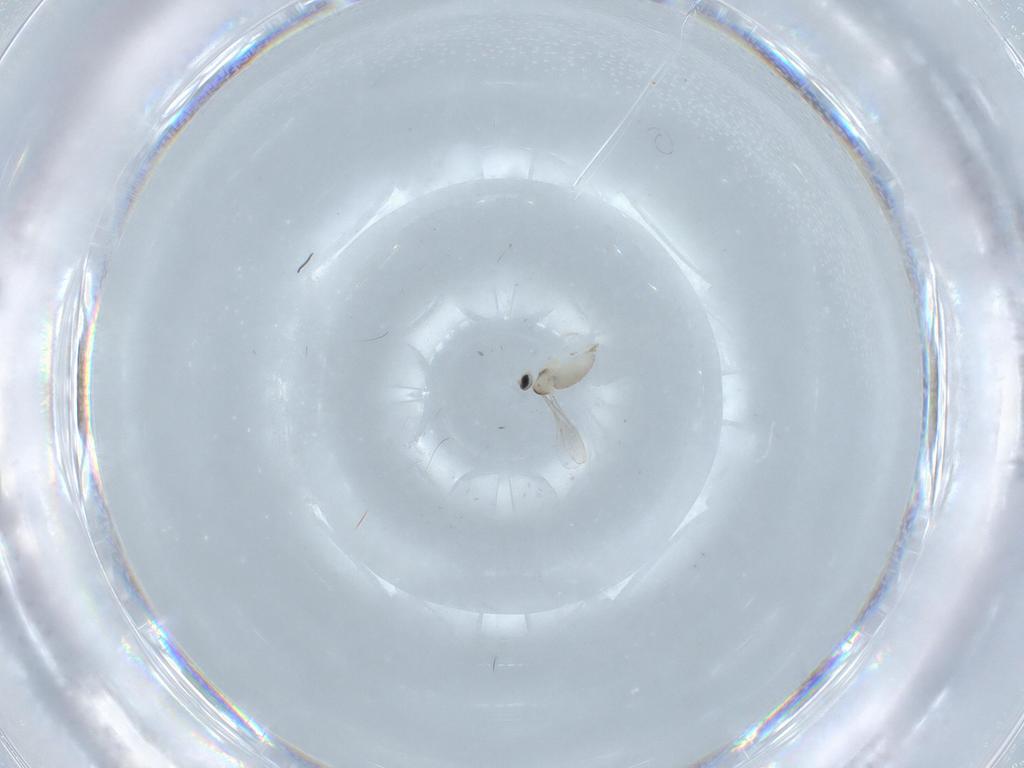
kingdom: Animalia
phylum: Arthropoda
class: Insecta
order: Diptera
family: Cecidomyiidae
